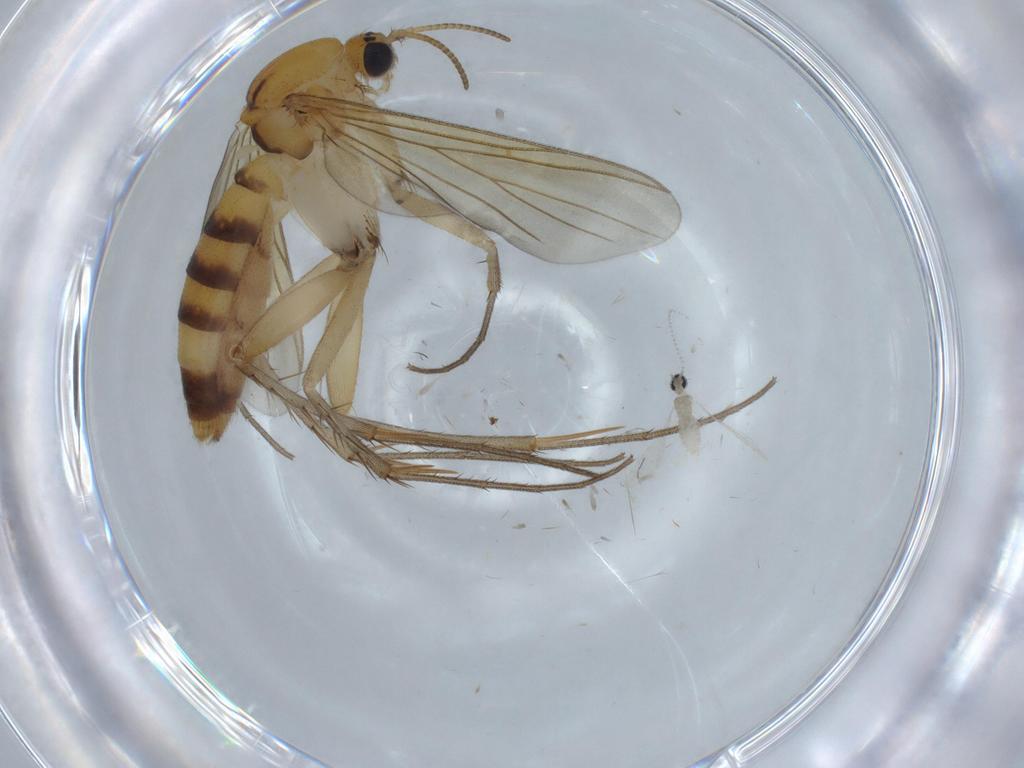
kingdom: Animalia
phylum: Arthropoda
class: Insecta
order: Diptera
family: Mycetophilidae
